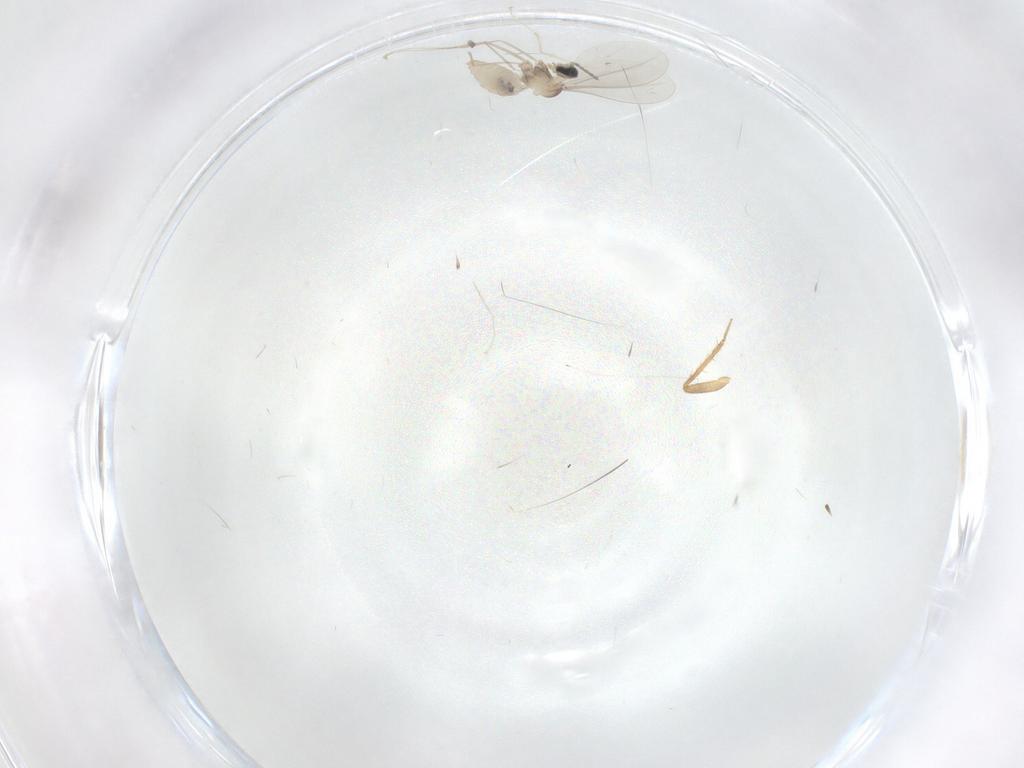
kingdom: Animalia
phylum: Arthropoda
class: Insecta
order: Diptera
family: Cecidomyiidae
